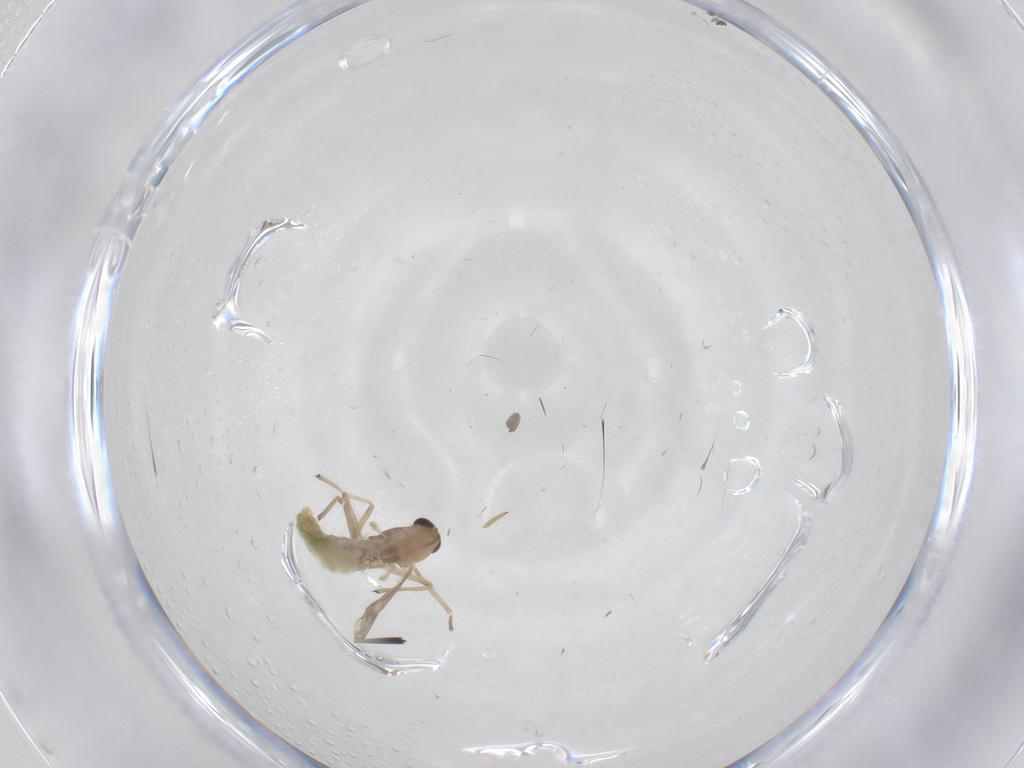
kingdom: Animalia
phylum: Arthropoda
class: Insecta
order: Diptera
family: Chironomidae
